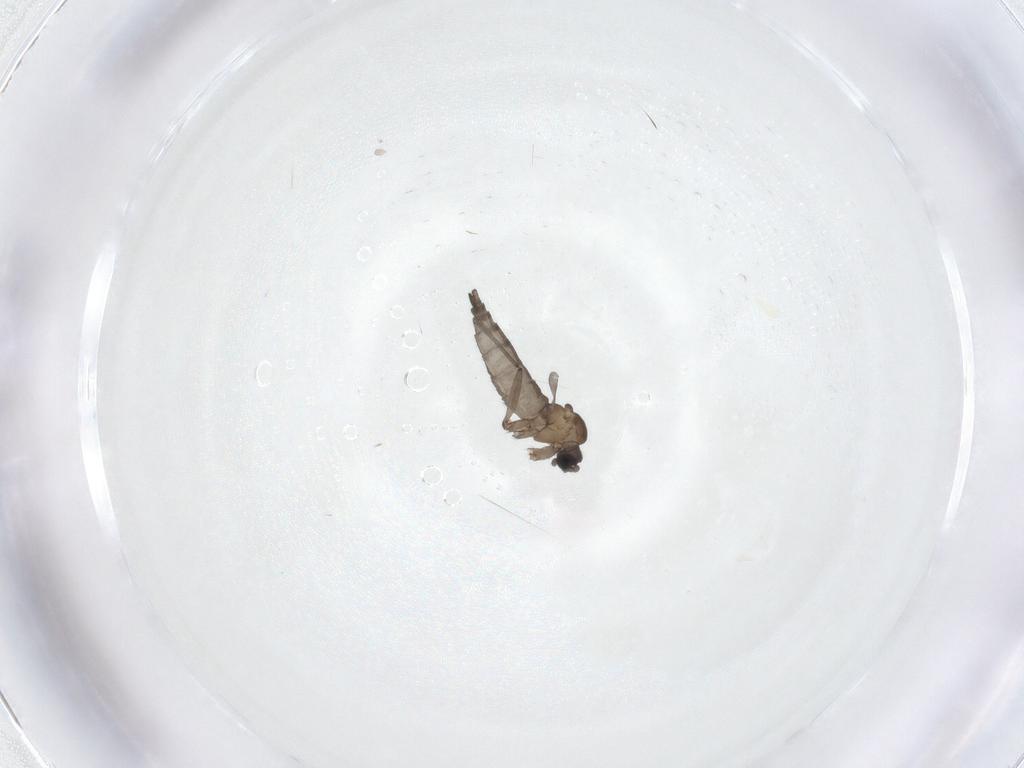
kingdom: Animalia
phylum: Arthropoda
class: Insecta
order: Diptera
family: Sciaridae
